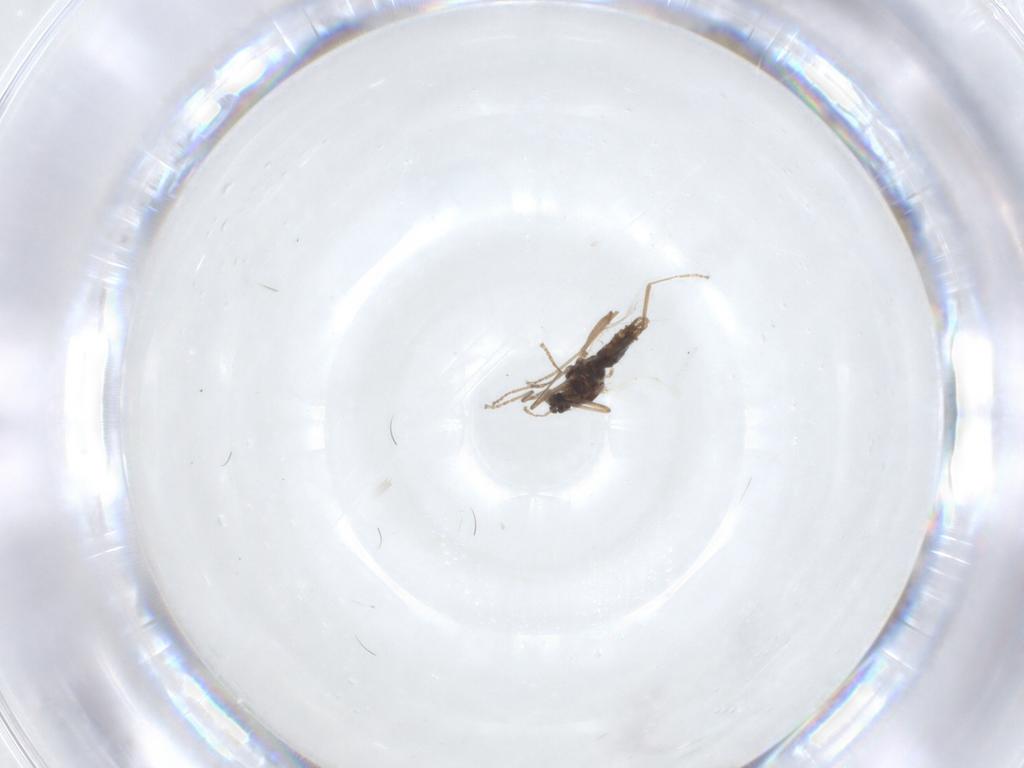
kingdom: Animalia
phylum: Arthropoda
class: Insecta
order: Diptera
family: Cecidomyiidae
